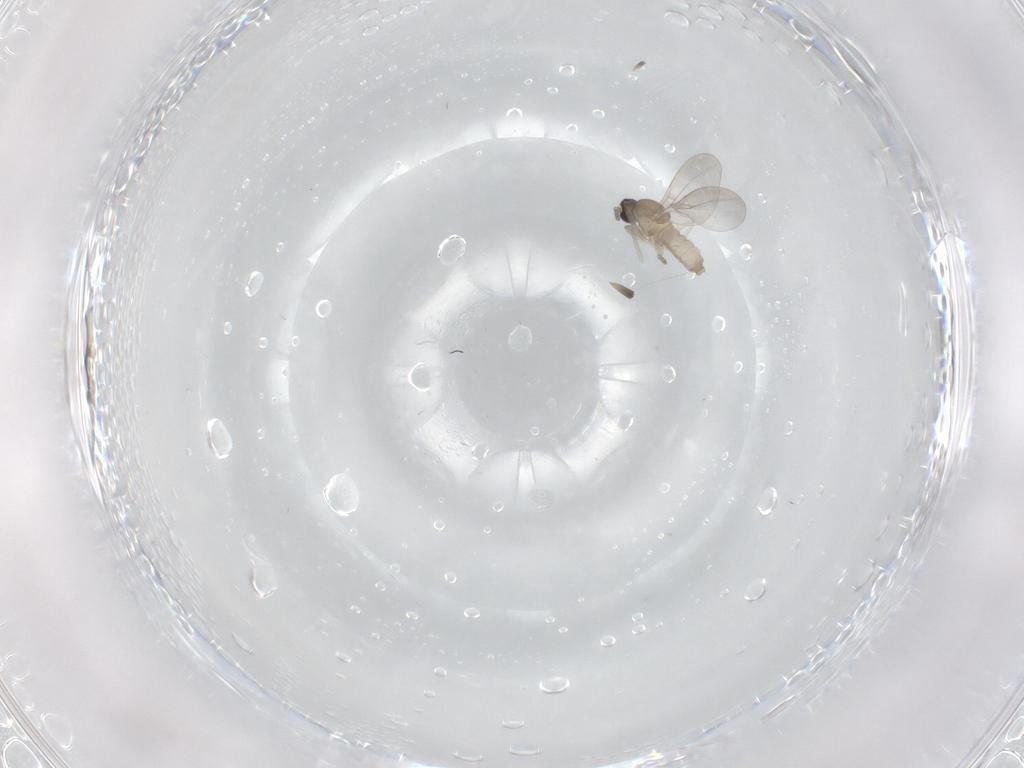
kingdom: Animalia
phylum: Arthropoda
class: Insecta
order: Diptera
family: Cecidomyiidae
